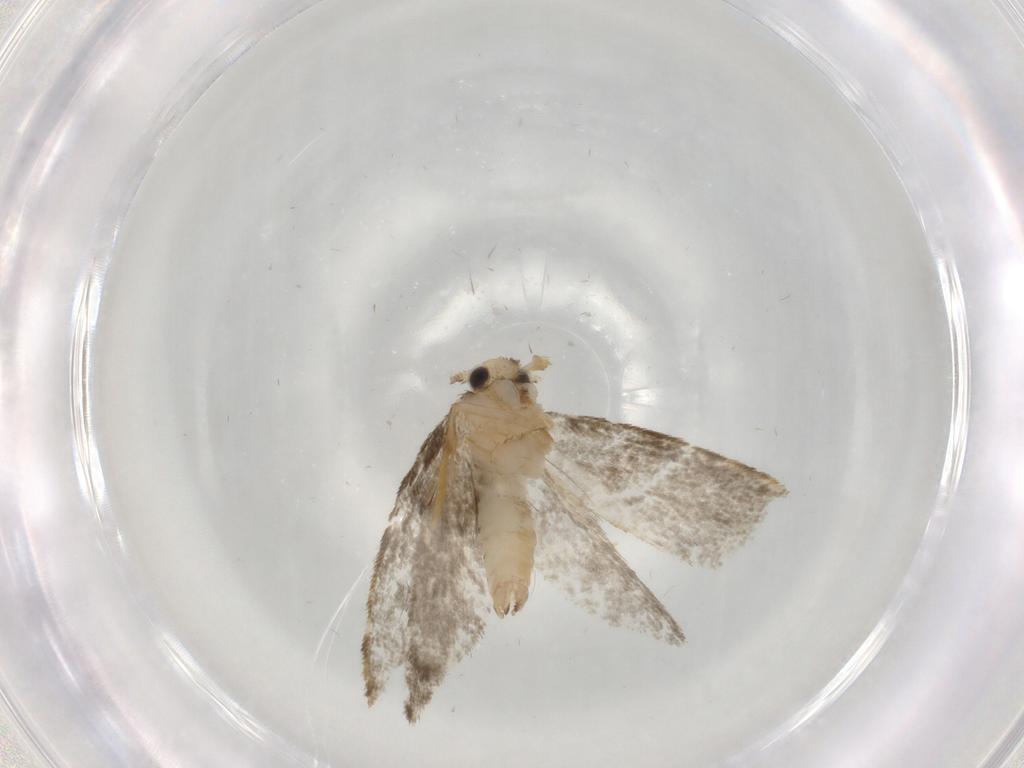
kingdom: Animalia
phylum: Arthropoda
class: Insecta
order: Lepidoptera
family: Psychidae
